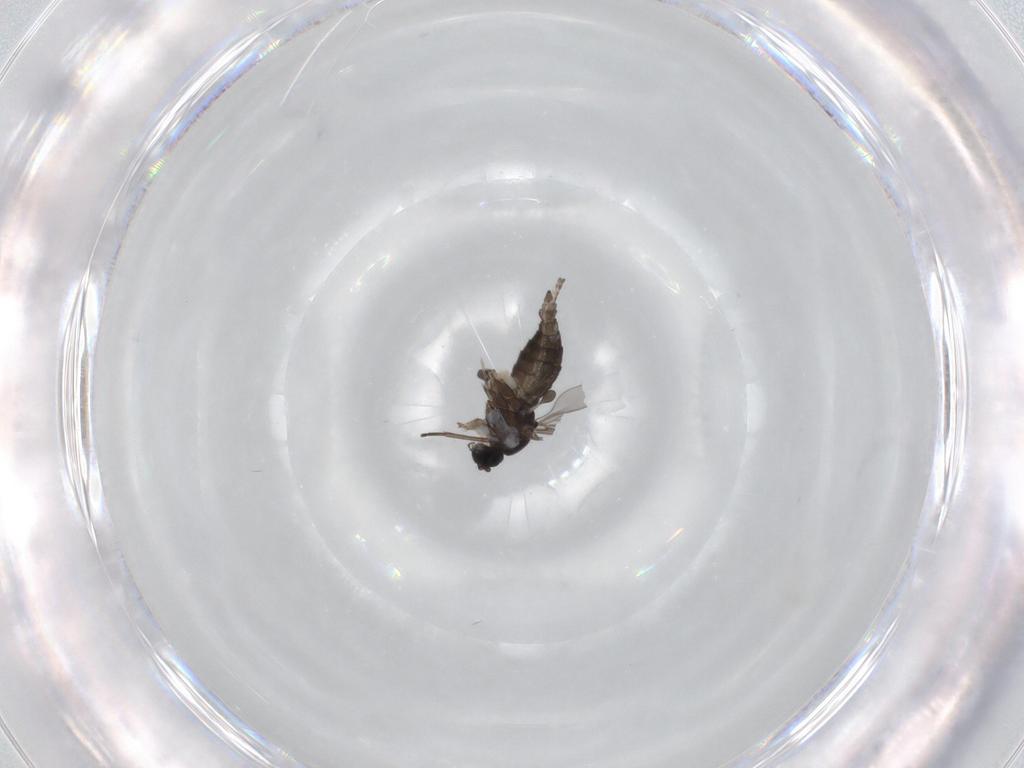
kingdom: Animalia
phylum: Arthropoda
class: Insecta
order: Diptera
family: Sciaridae
